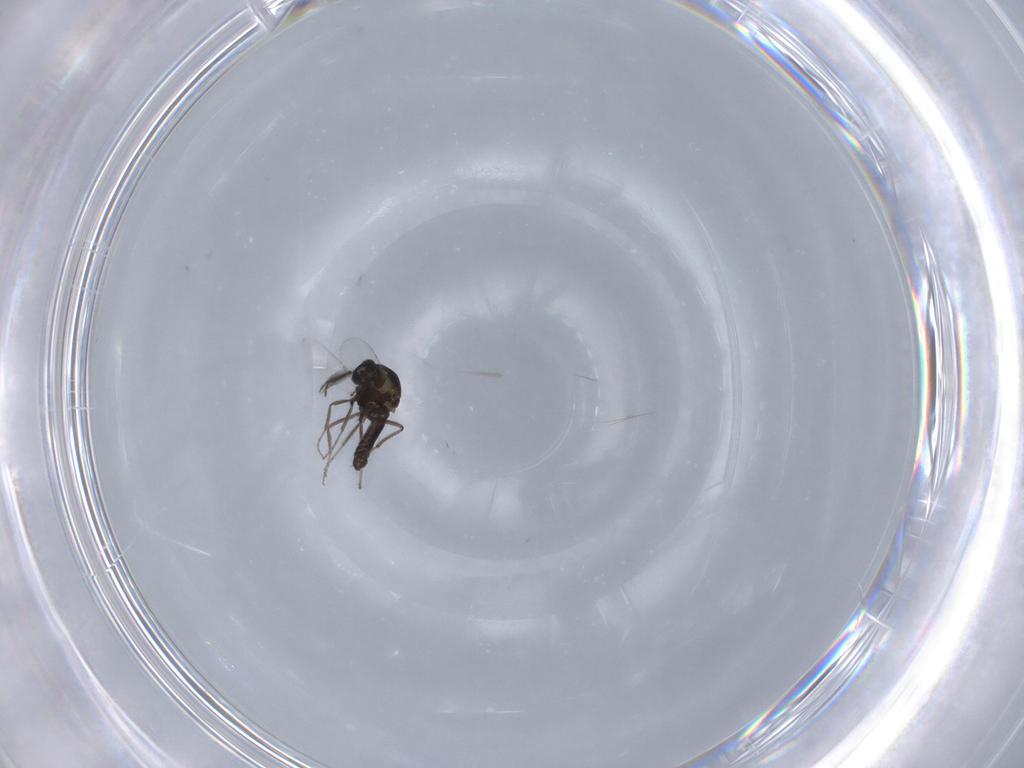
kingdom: Animalia
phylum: Arthropoda
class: Insecta
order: Diptera
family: Ceratopogonidae
